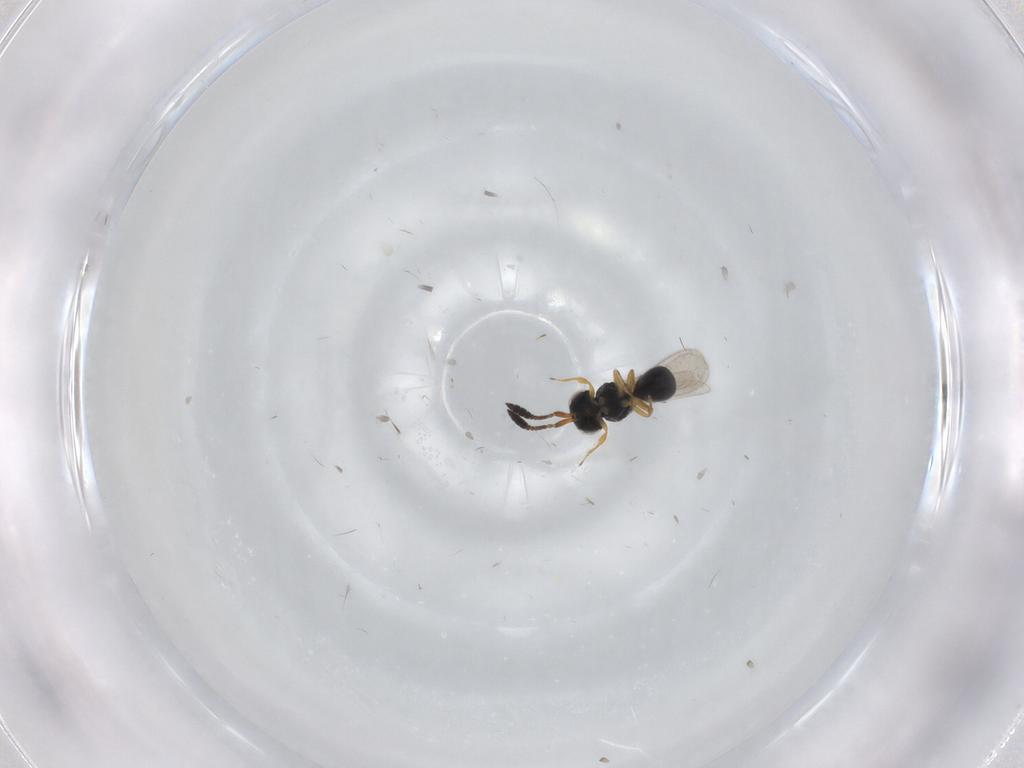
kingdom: Animalia
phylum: Arthropoda
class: Insecta
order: Hymenoptera
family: Scelionidae
